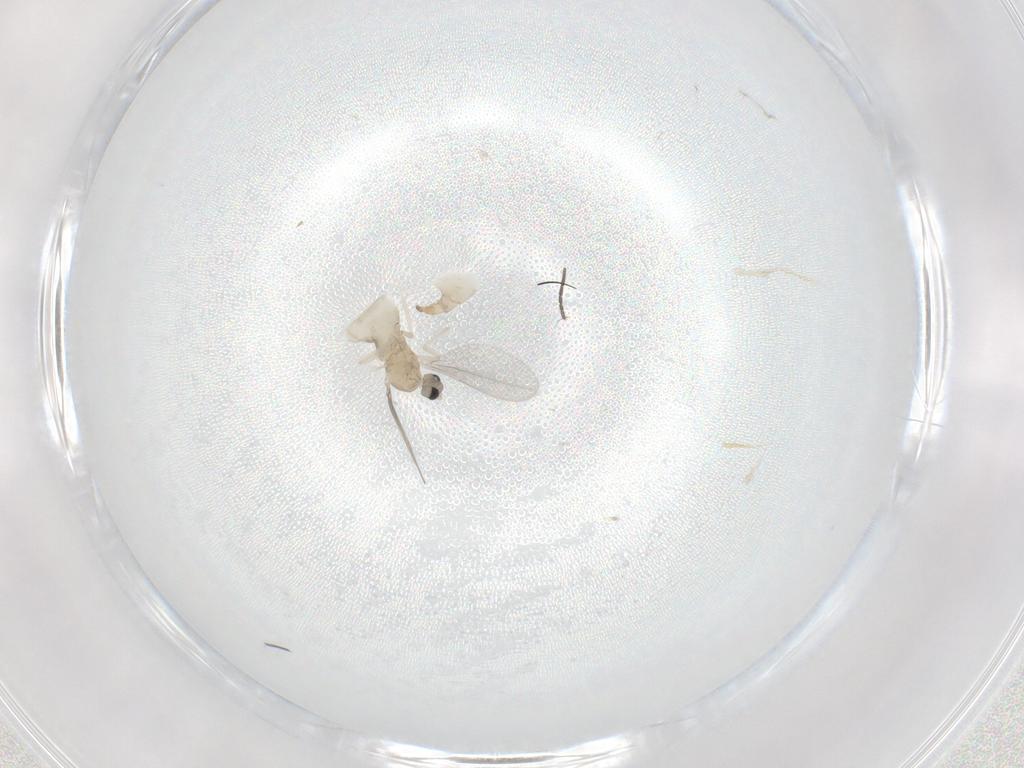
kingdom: Animalia
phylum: Arthropoda
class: Insecta
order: Diptera
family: Cecidomyiidae
